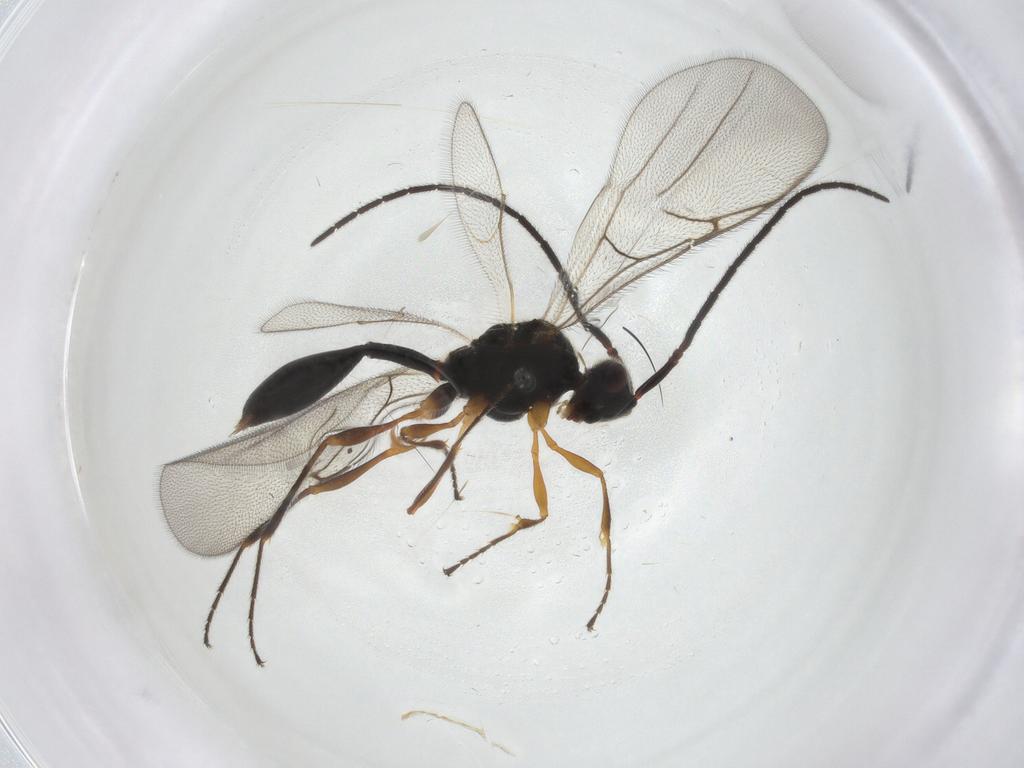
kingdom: Animalia
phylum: Arthropoda
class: Insecta
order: Hymenoptera
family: Diapriidae
